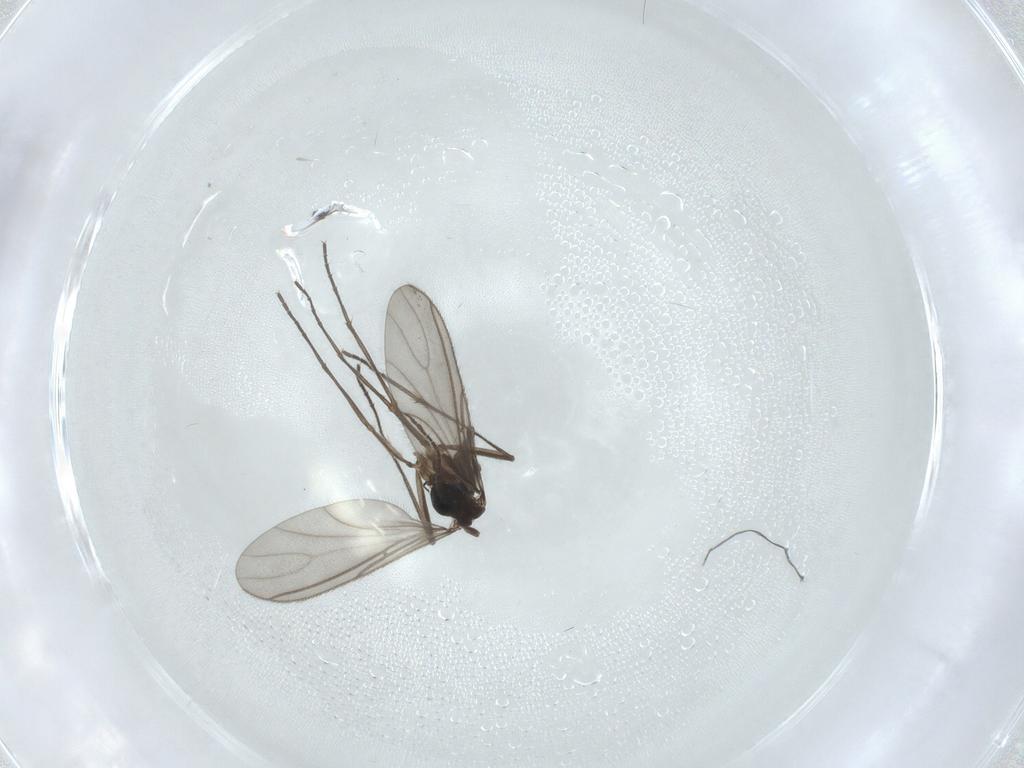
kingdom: Animalia
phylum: Arthropoda
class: Insecta
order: Diptera
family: Sciaridae
